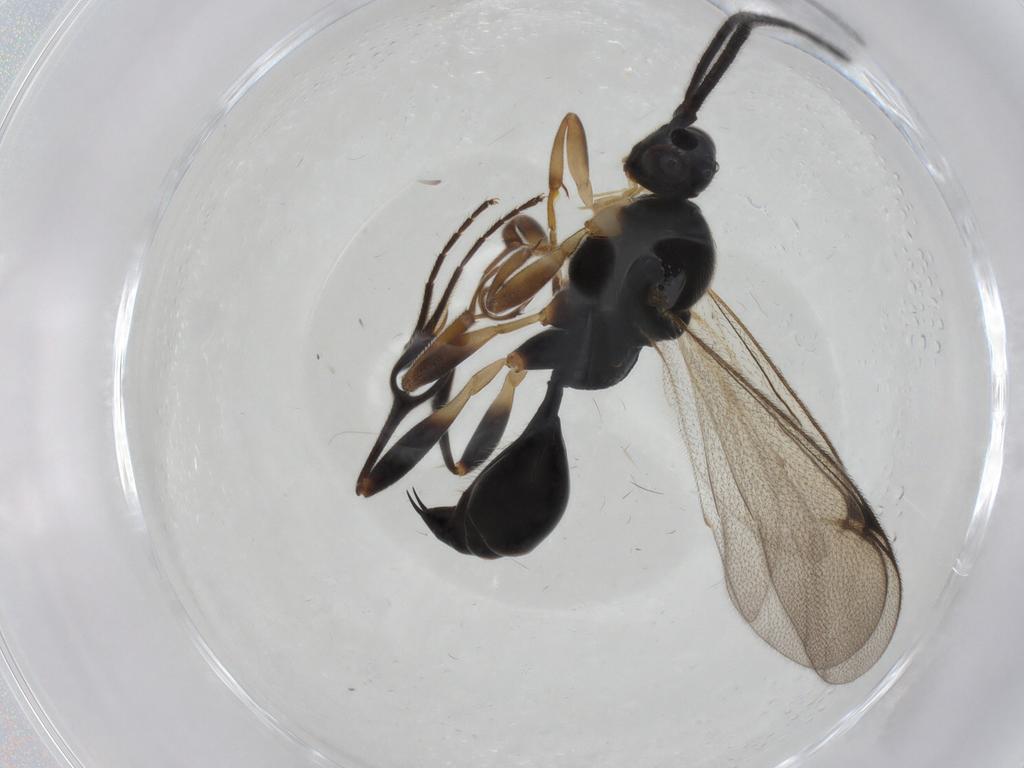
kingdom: Animalia
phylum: Arthropoda
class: Insecta
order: Hymenoptera
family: Proctotrupidae
